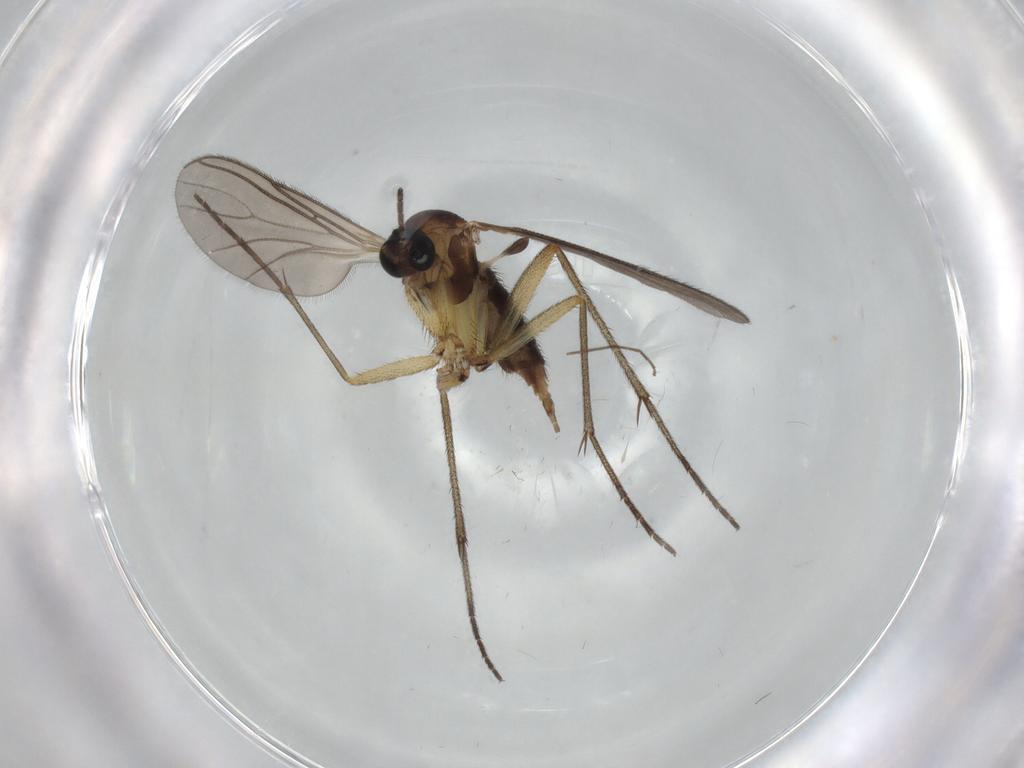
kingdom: Animalia
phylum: Arthropoda
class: Insecta
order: Diptera
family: Sciaridae
